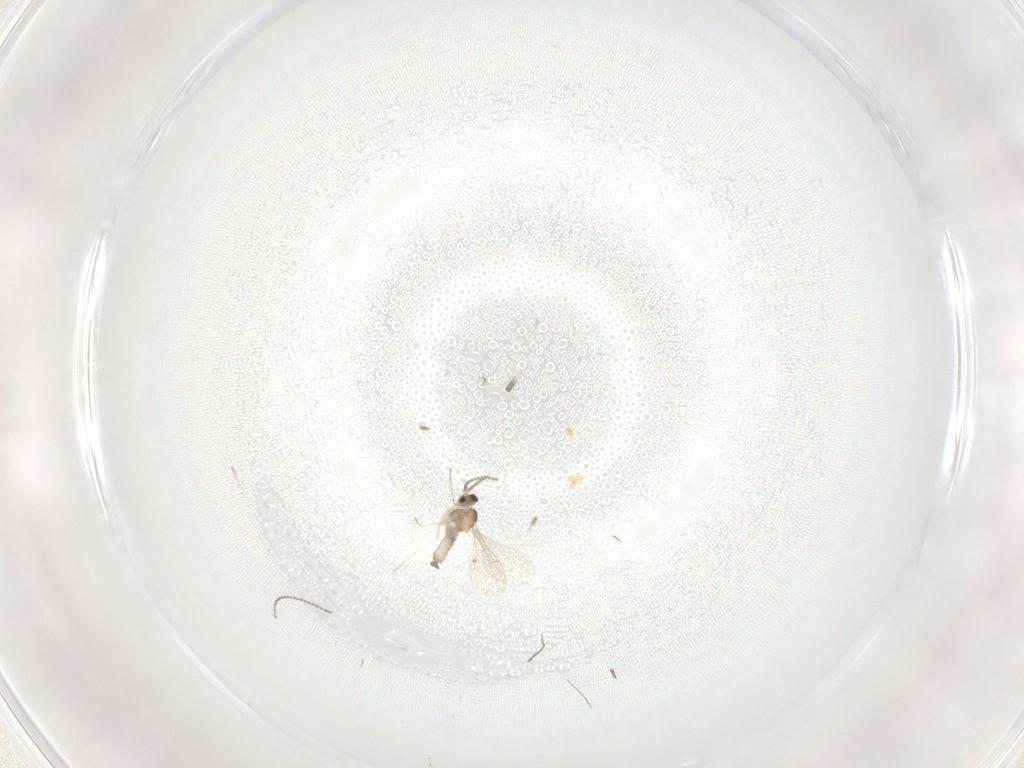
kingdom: Animalia
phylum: Arthropoda
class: Insecta
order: Diptera
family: Cecidomyiidae
